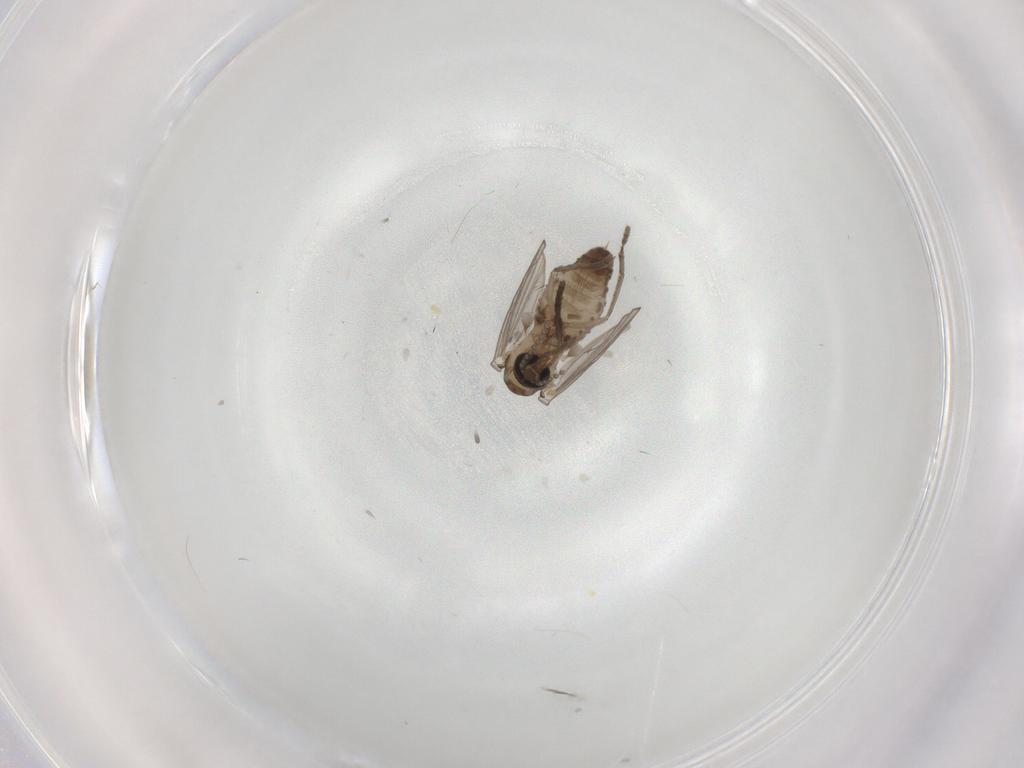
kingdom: Animalia
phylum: Arthropoda
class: Insecta
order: Diptera
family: Psychodidae
